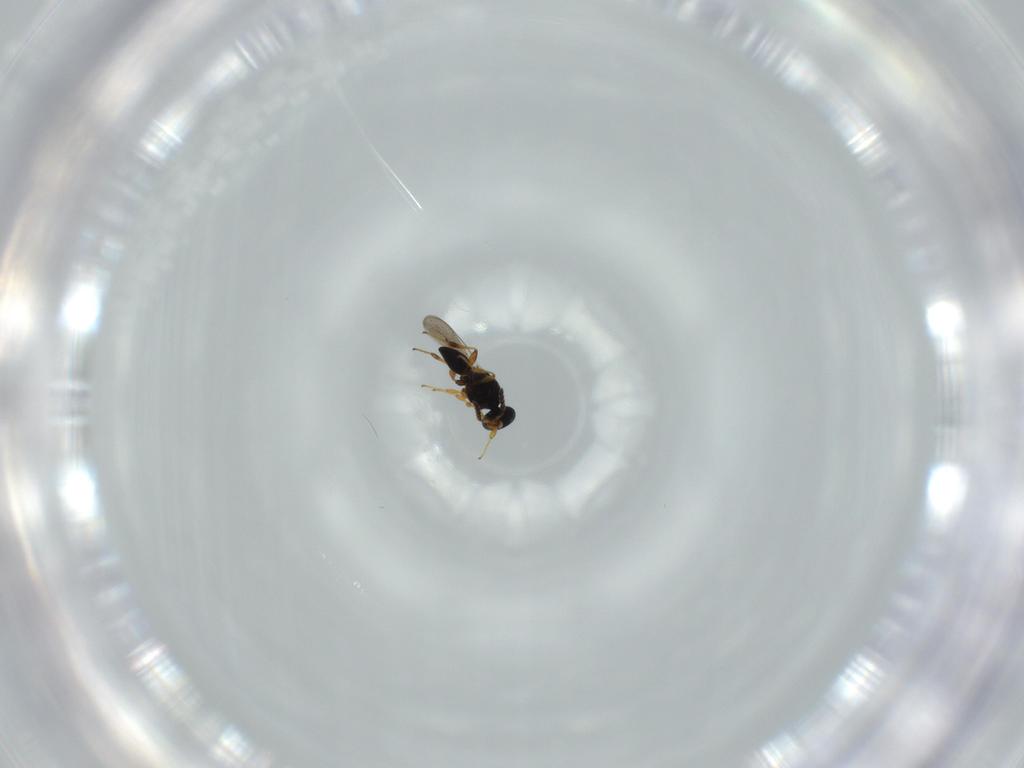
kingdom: Animalia
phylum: Arthropoda
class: Insecta
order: Hymenoptera
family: Platygastridae
